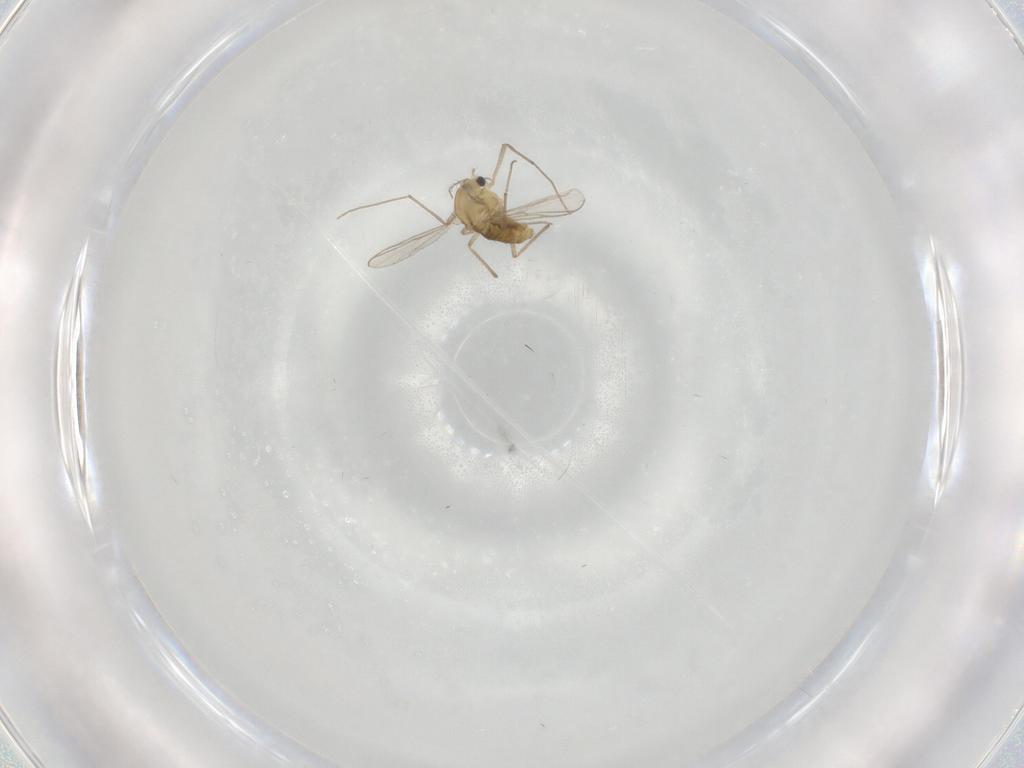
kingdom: Animalia
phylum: Arthropoda
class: Insecta
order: Diptera
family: Chironomidae
